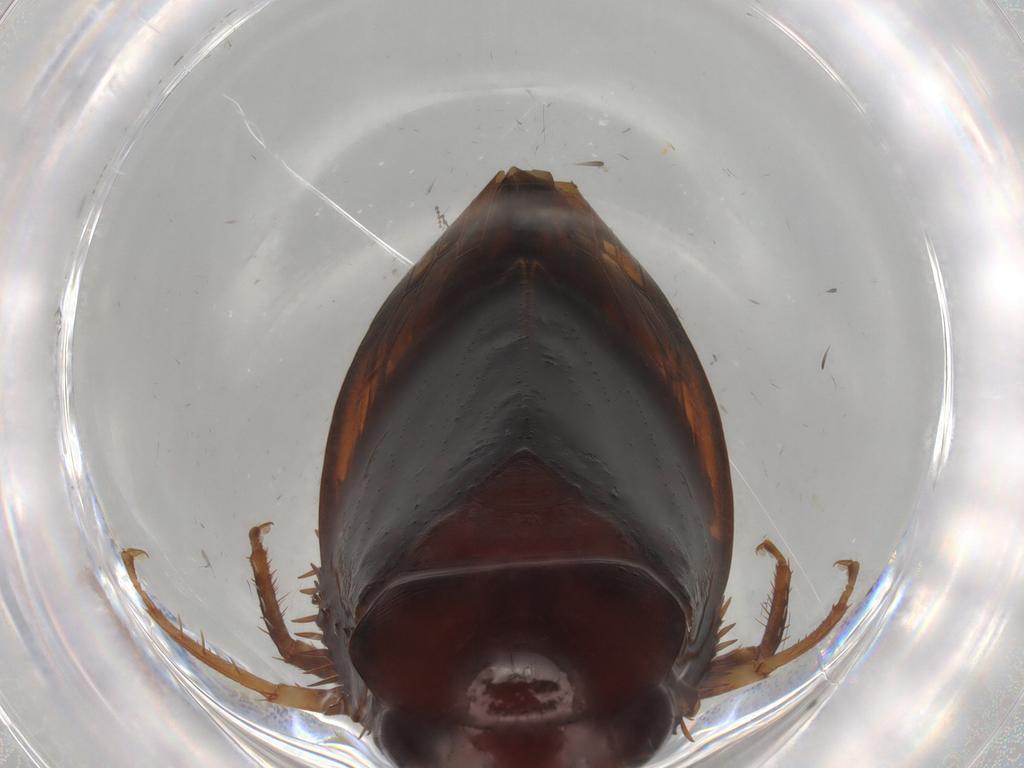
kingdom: Animalia
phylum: Arthropoda
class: Insecta
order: Hemiptera
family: Cicadellidae
